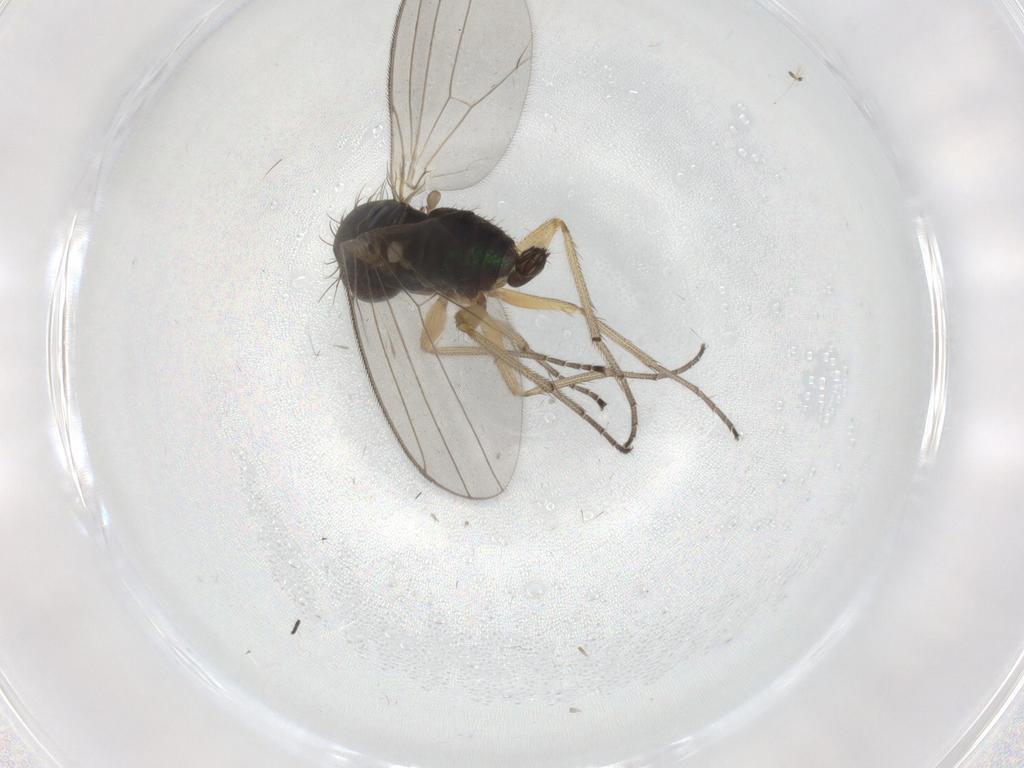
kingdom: Animalia
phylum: Arthropoda
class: Insecta
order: Diptera
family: Dolichopodidae
